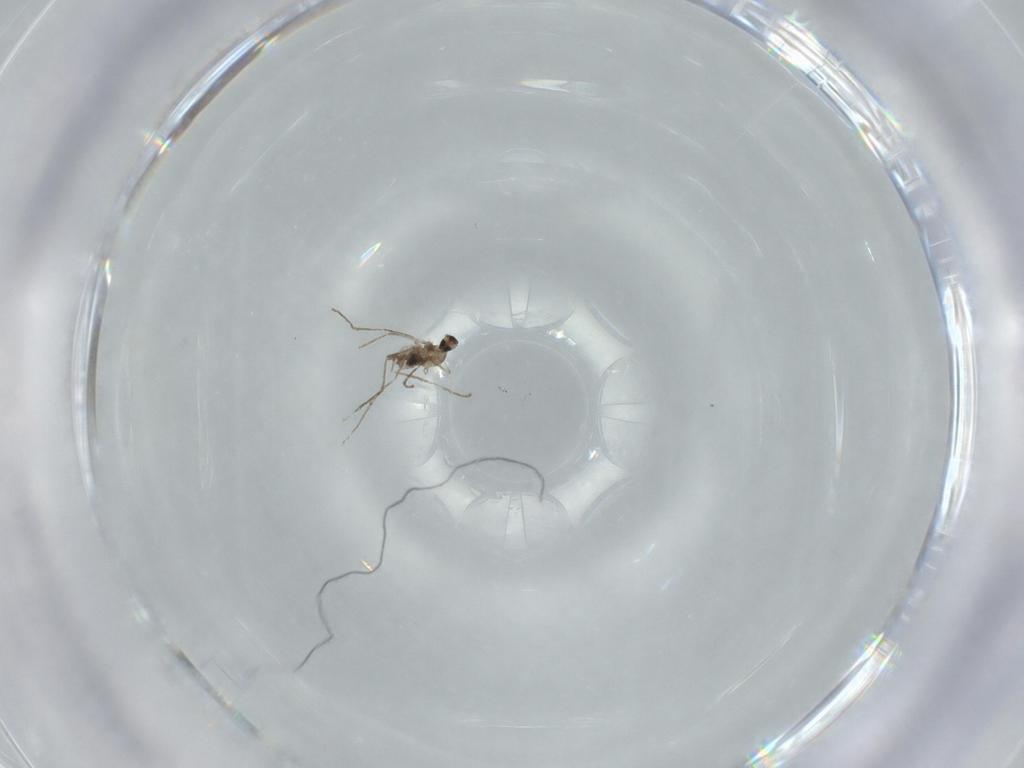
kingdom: Animalia
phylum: Arthropoda
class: Insecta
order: Diptera
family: Cecidomyiidae
